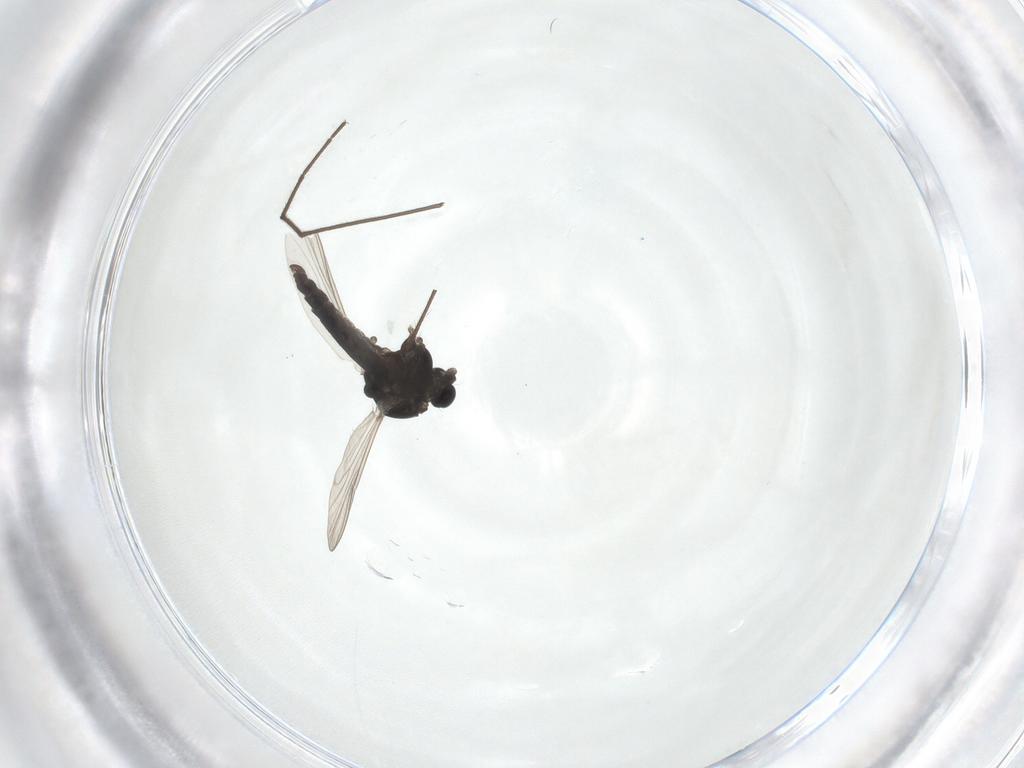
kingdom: Animalia
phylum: Arthropoda
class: Insecta
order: Diptera
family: Chironomidae
